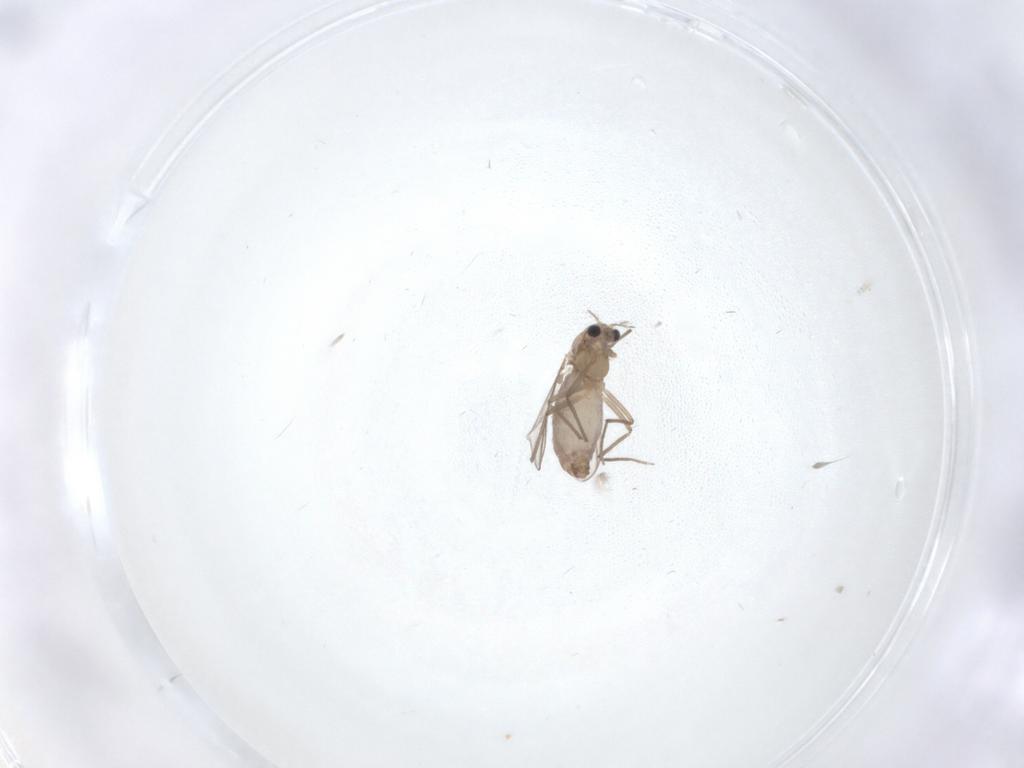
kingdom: Animalia
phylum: Arthropoda
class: Insecta
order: Diptera
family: Chironomidae
